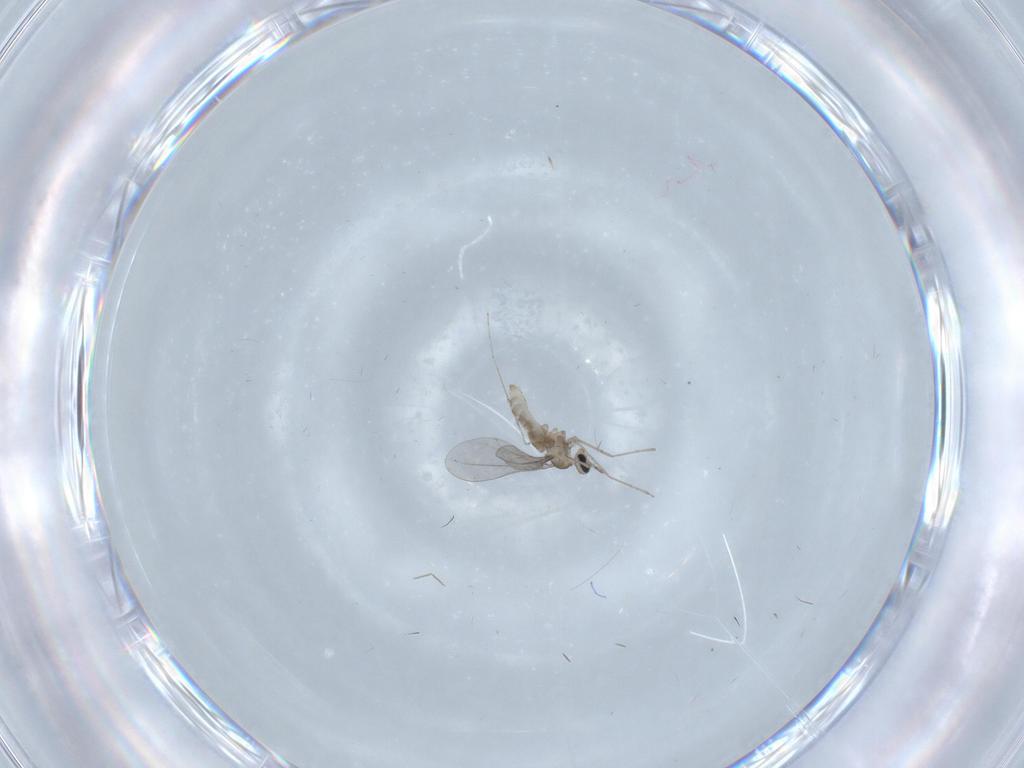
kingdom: Animalia
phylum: Arthropoda
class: Insecta
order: Diptera
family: Cecidomyiidae
